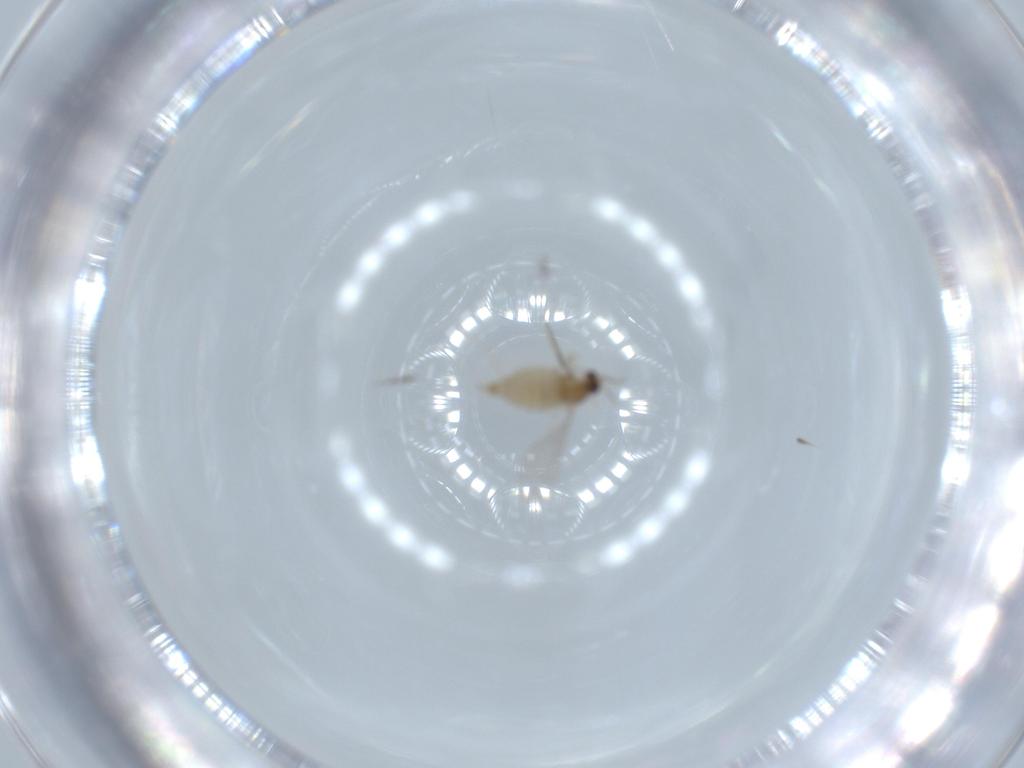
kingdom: Animalia
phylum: Arthropoda
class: Insecta
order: Diptera
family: Cecidomyiidae
